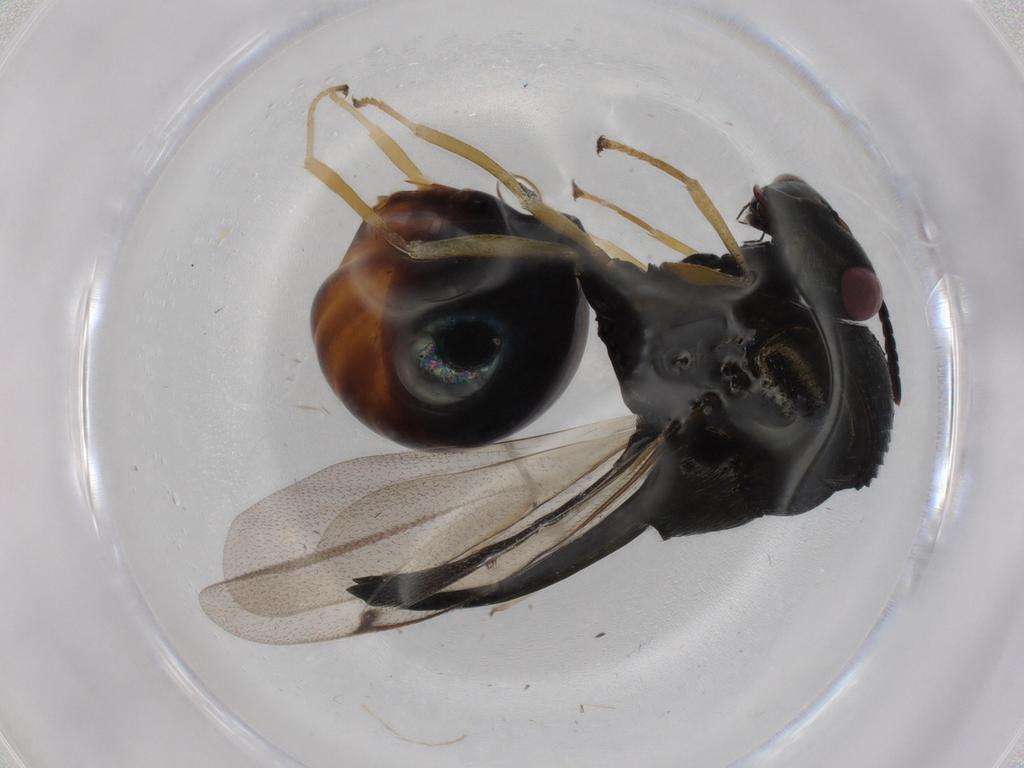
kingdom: Animalia
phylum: Arthropoda
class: Insecta
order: Hymenoptera
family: Platygastridae
